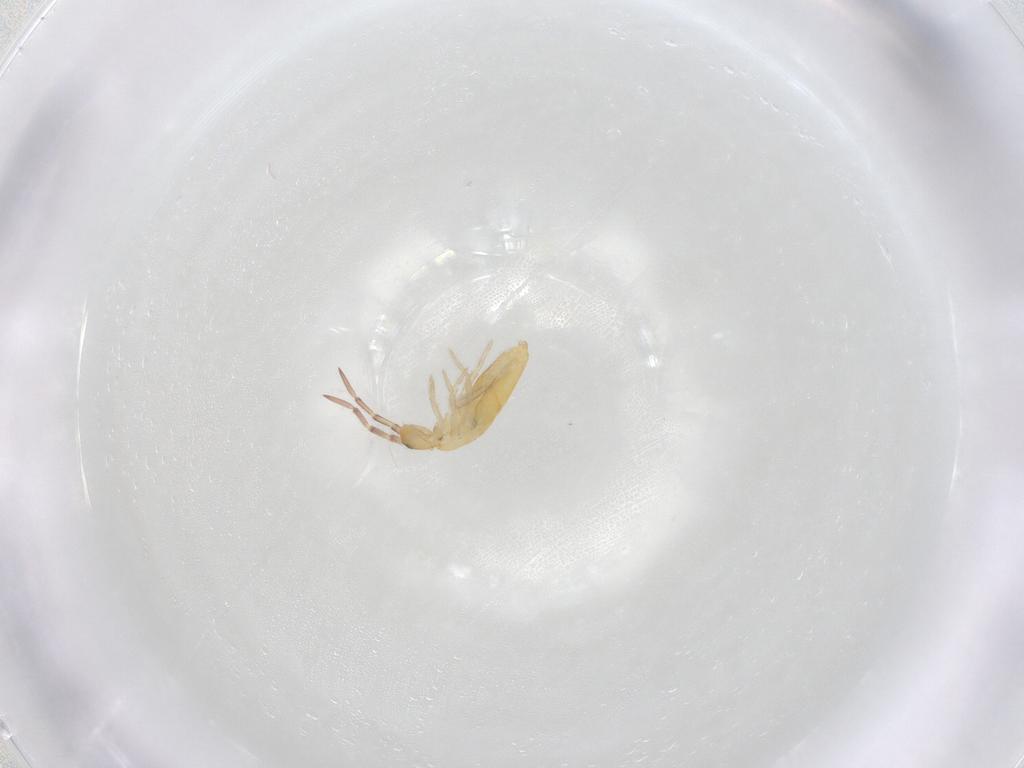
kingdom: Animalia
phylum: Arthropoda
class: Collembola
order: Entomobryomorpha
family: Entomobryidae
